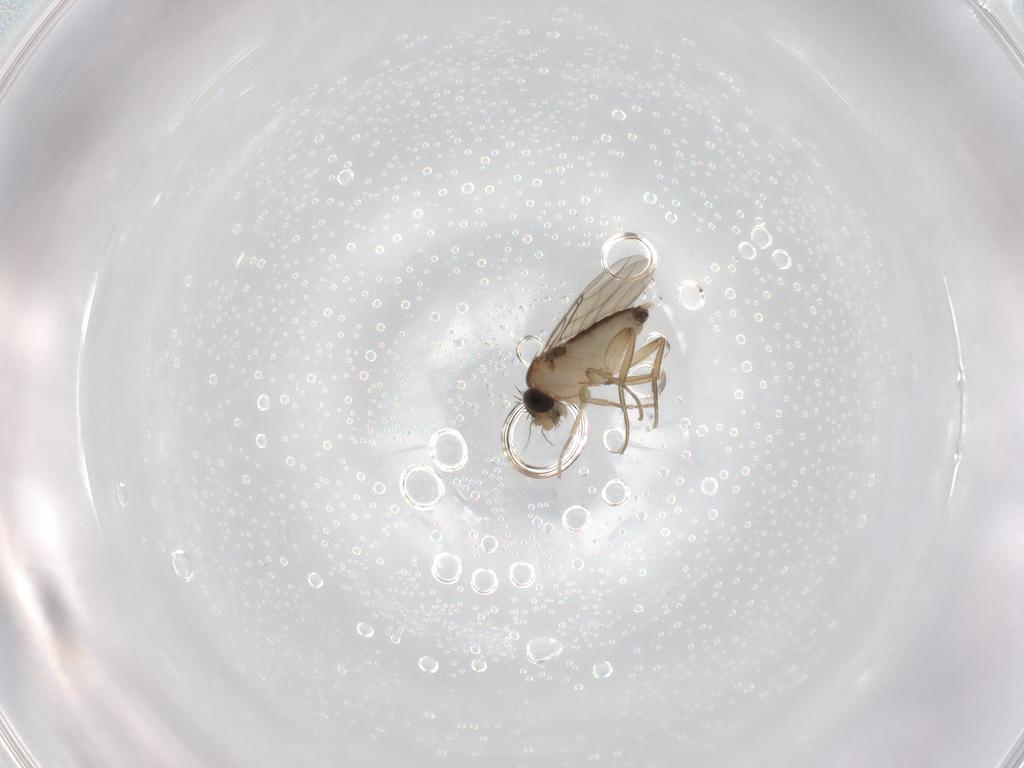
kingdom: Animalia
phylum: Arthropoda
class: Insecta
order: Diptera
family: Phoridae
